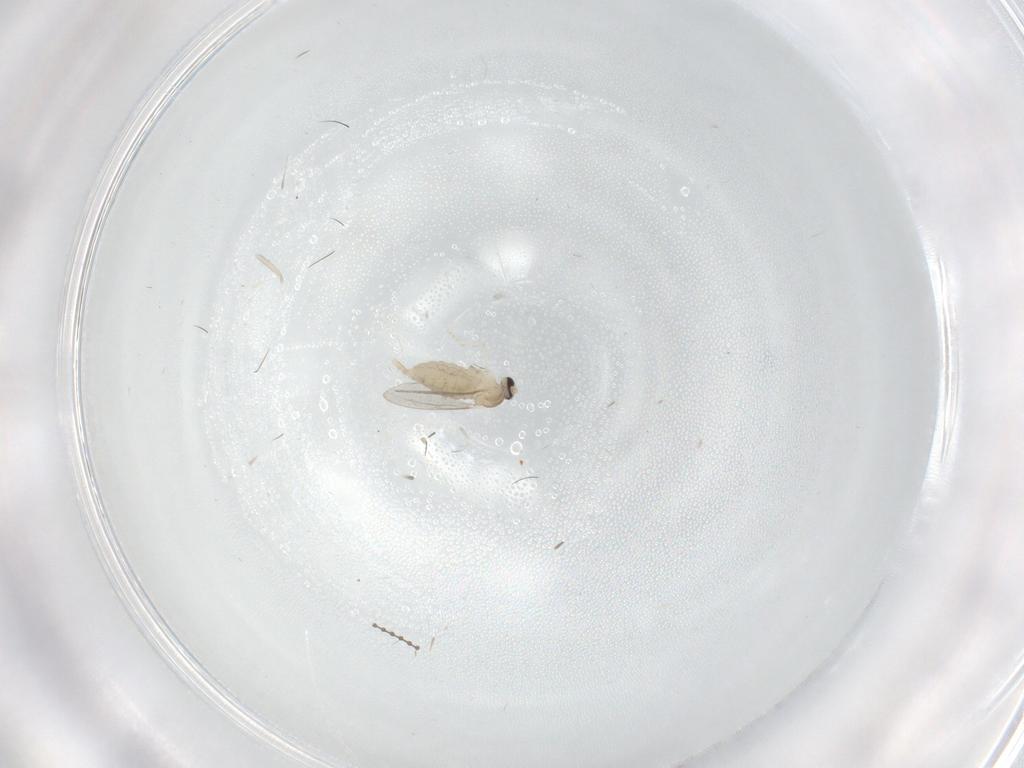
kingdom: Animalia
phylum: Arthropoda
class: Insecta
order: Diptera
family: Cecidomyiidae
